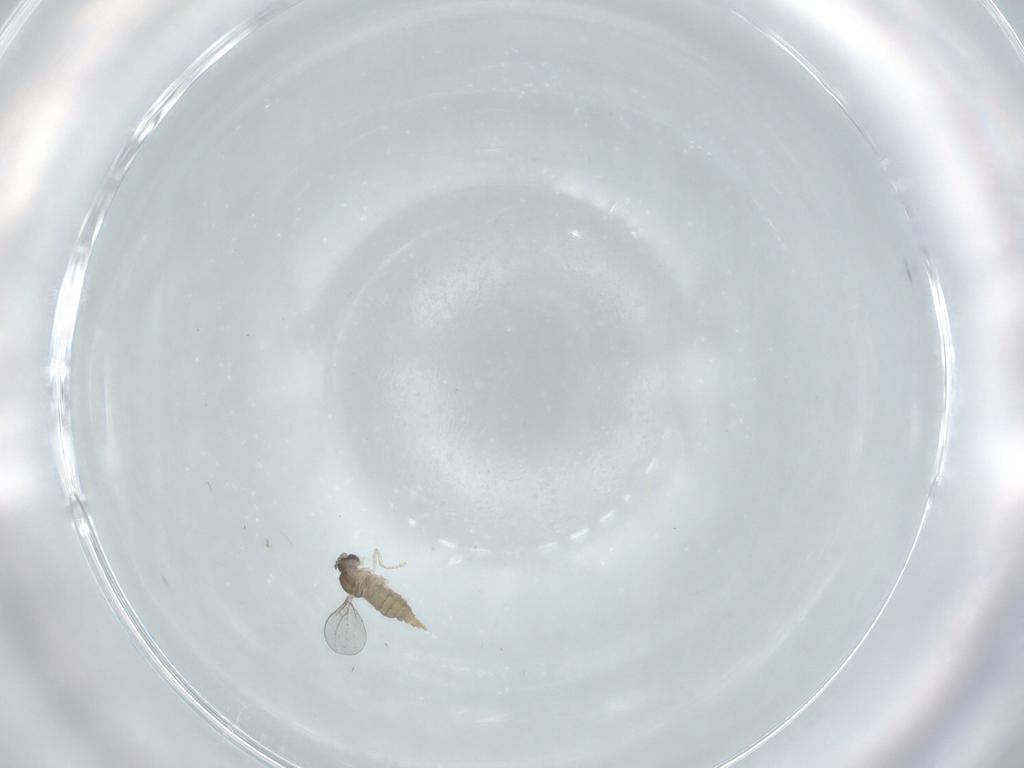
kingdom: Animalia
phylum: Arthropoda
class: Insecta
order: Diptera
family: Cecidomyiidae
